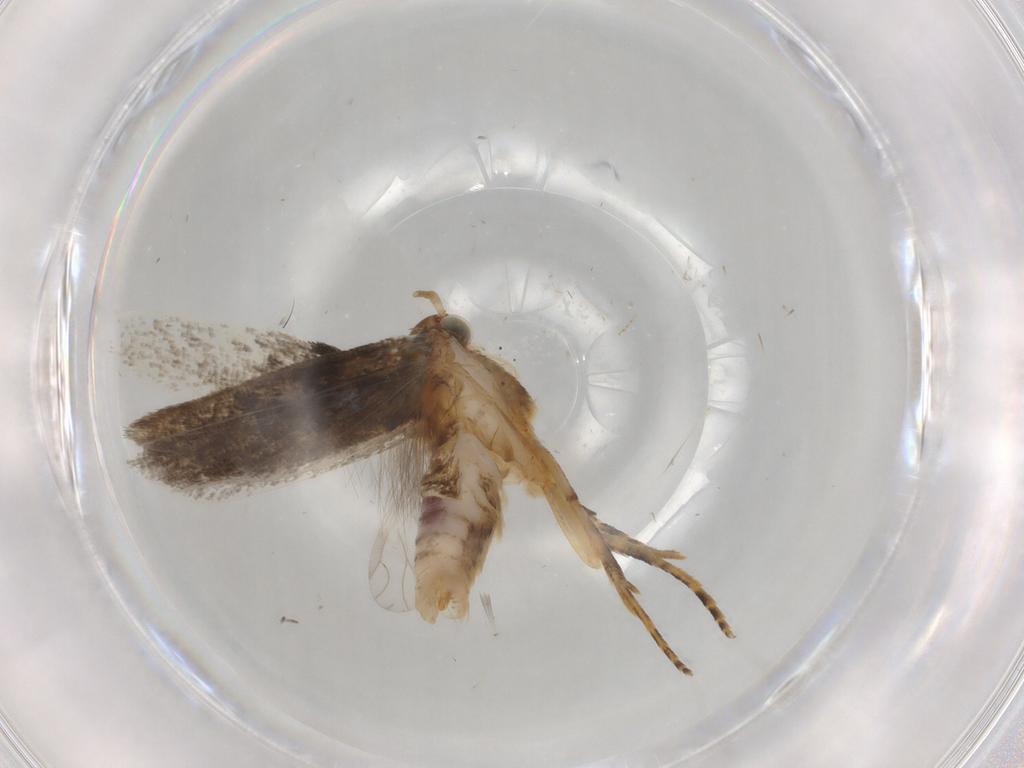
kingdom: Animalia
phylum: Arthropoda
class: Insecta
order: Lepidoptera
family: Gelechiidae
